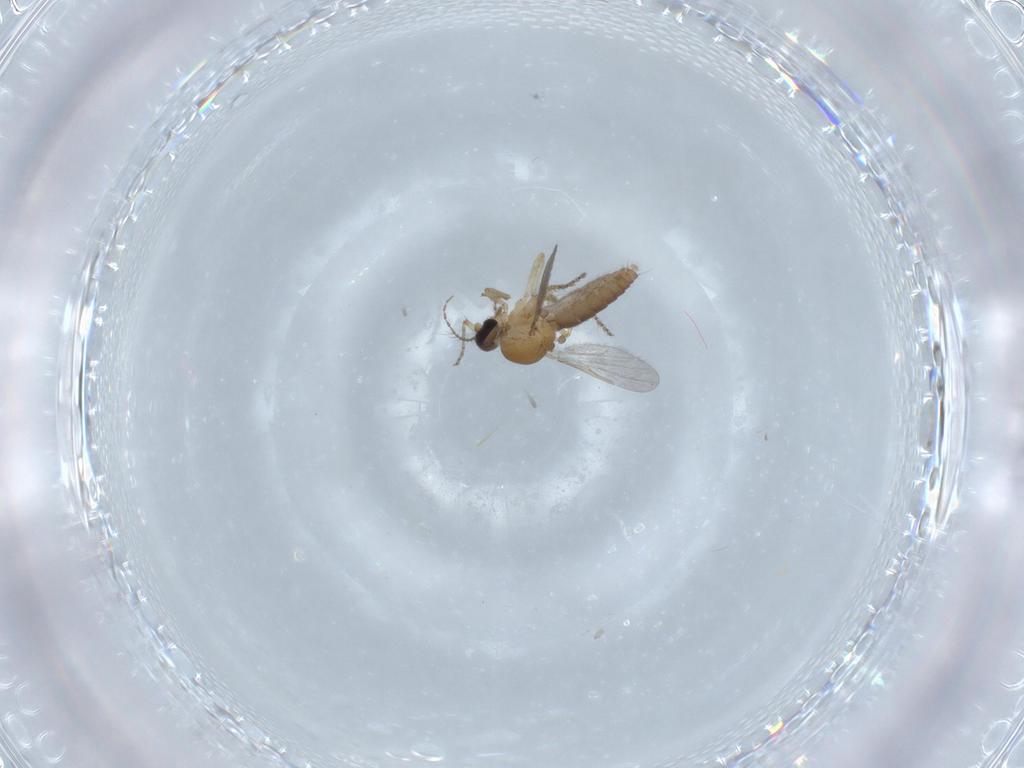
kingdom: Animalia
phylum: Arthropoda
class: Insecta
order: Diptera
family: Ceratopogonidae
